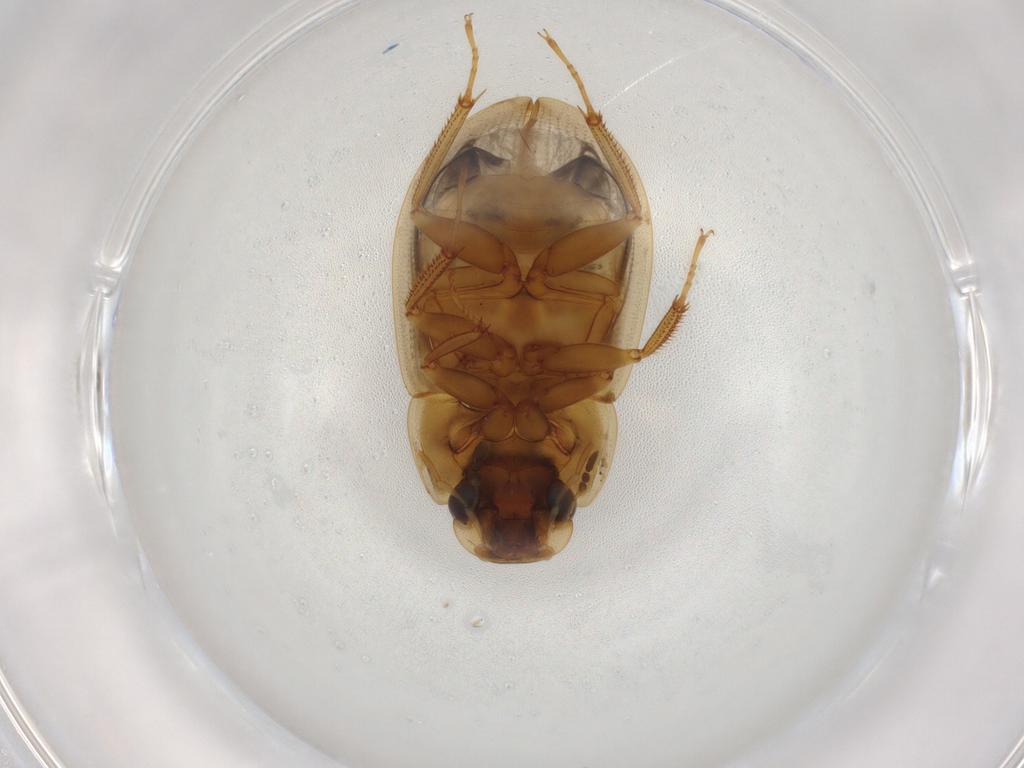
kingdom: Animalia
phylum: Arthropoda
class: Insecta
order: Coleoptera
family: Hydrophilidae
